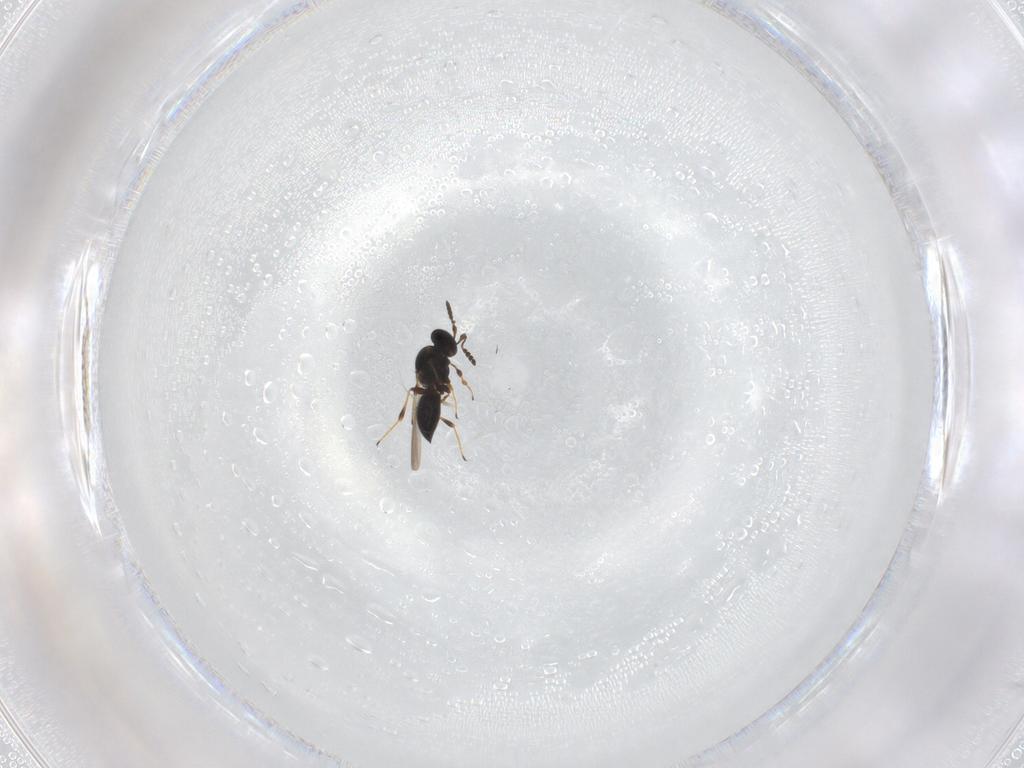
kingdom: Animalia
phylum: Arthropoda
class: Insecta
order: Hymenoptera
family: Platygastridae
